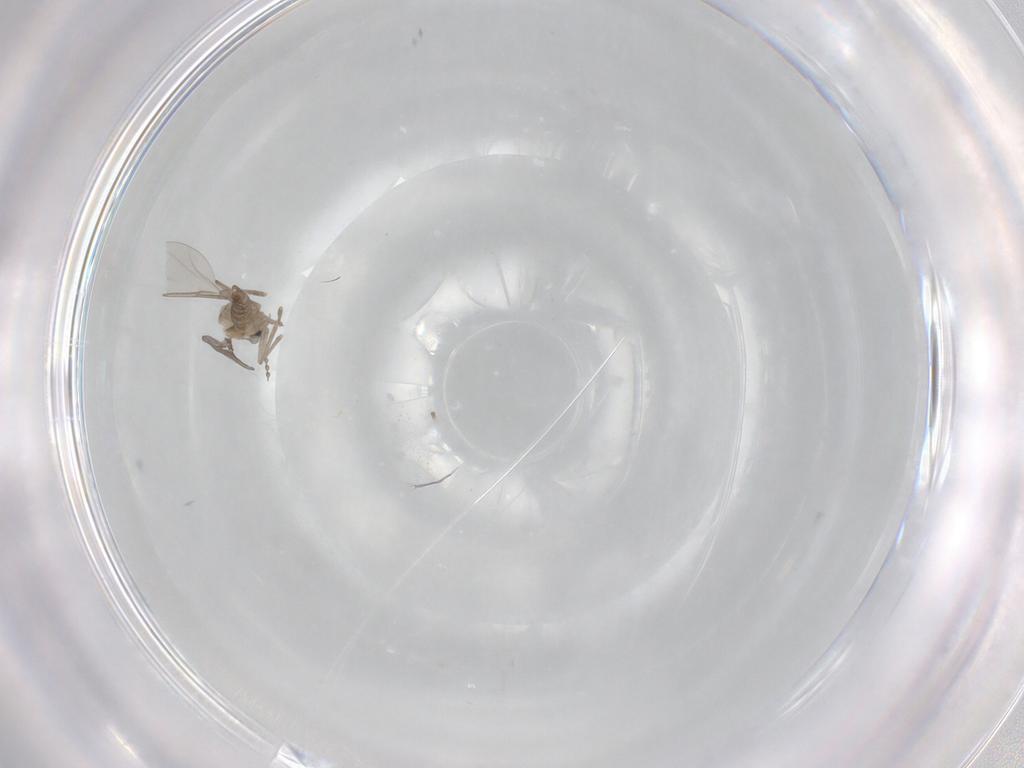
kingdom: Animalia
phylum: Arthropoda
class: Insecta
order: Diptera
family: Cecidomyiidae
